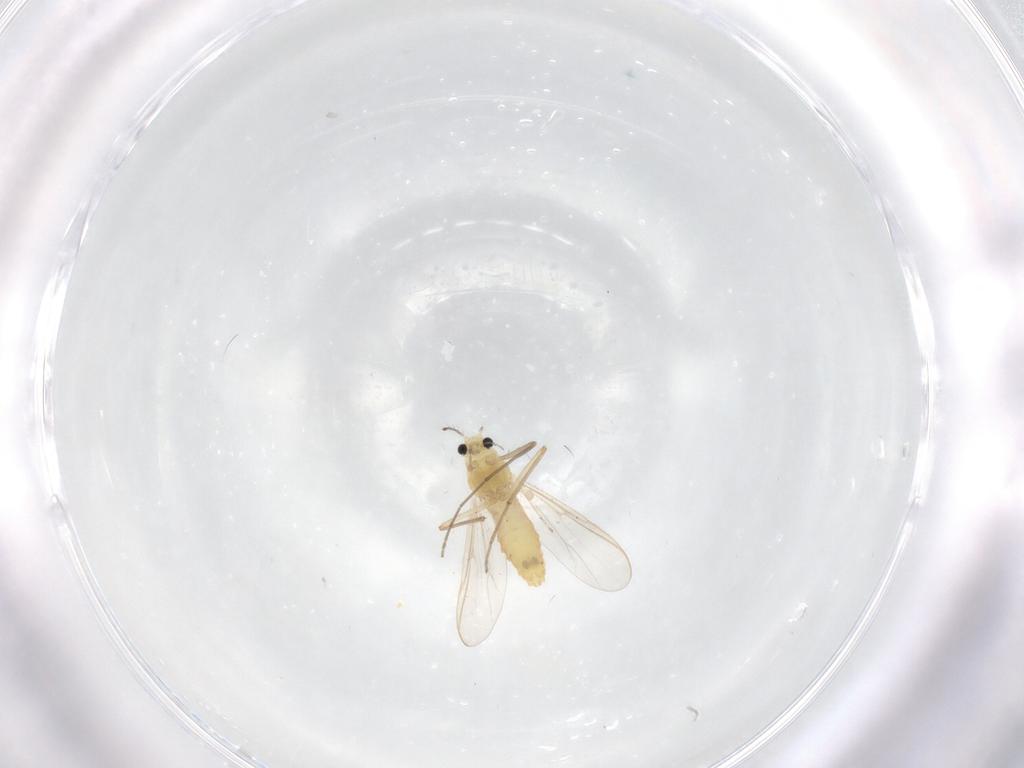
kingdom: Animalia
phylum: Arthropoda
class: Insecta
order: Diptera
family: Chironomidae
